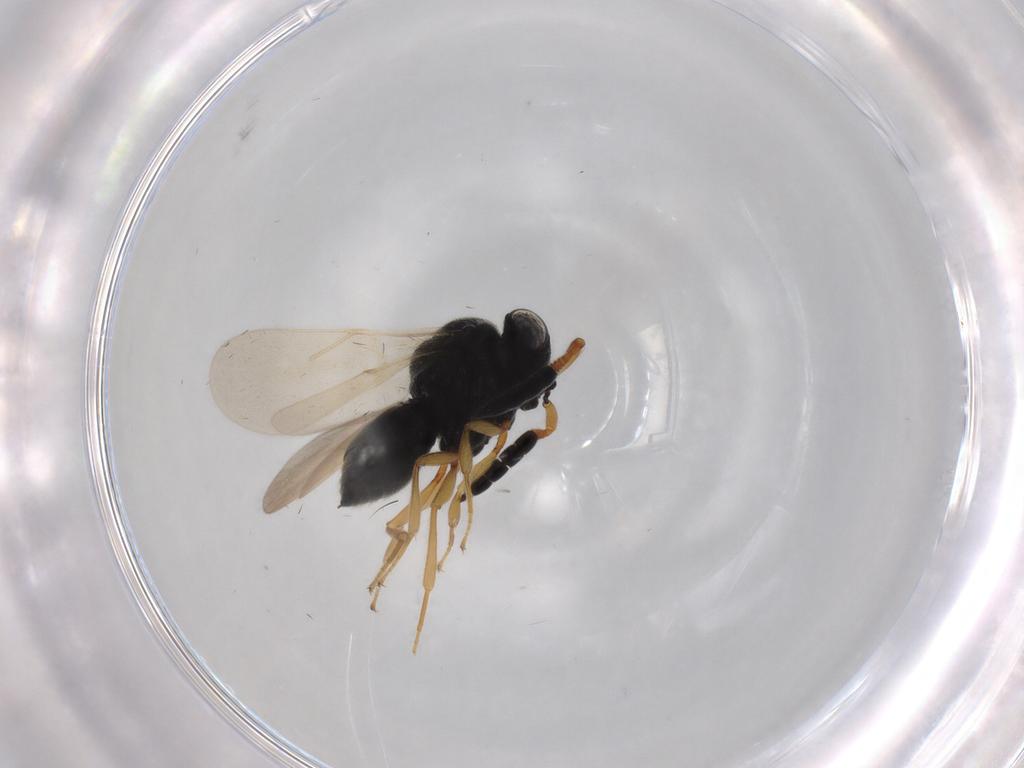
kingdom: Animalia
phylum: Arthropoda
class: Insecta
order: Hymenoptera
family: Scelionidae
